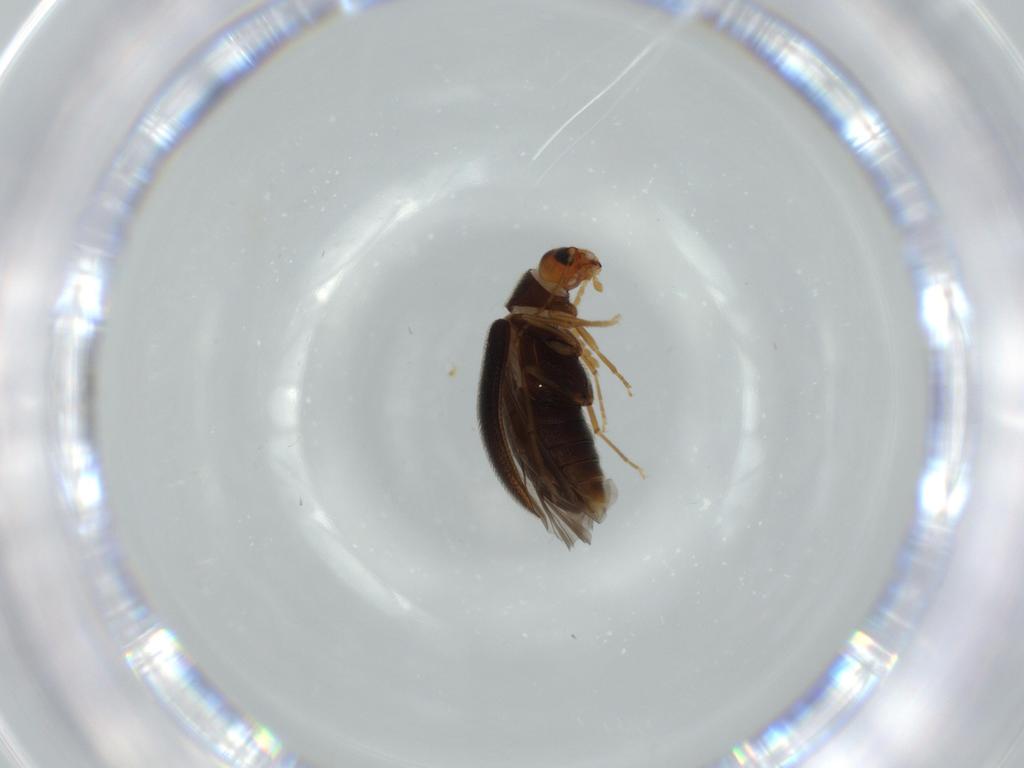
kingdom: Animalia
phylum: Arthropoda
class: Insecta
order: Coleoptera
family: Melandryidae
